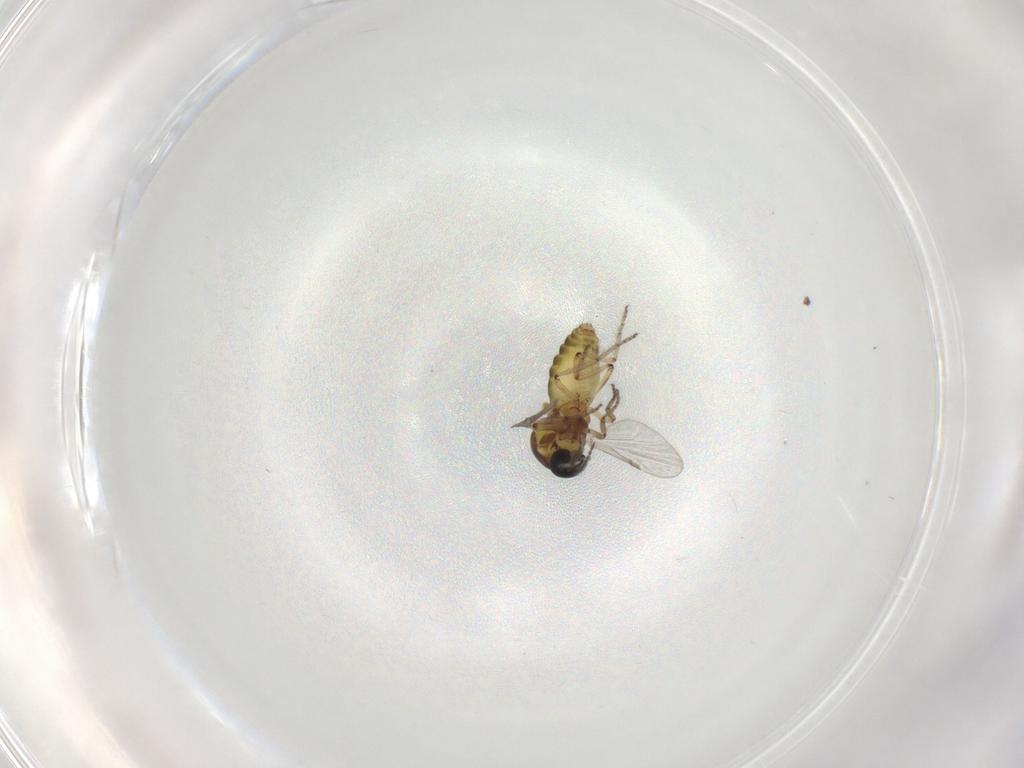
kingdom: Animalia
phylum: Arthropoda
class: Insecta
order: Diptera
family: Ceratopogonidae
